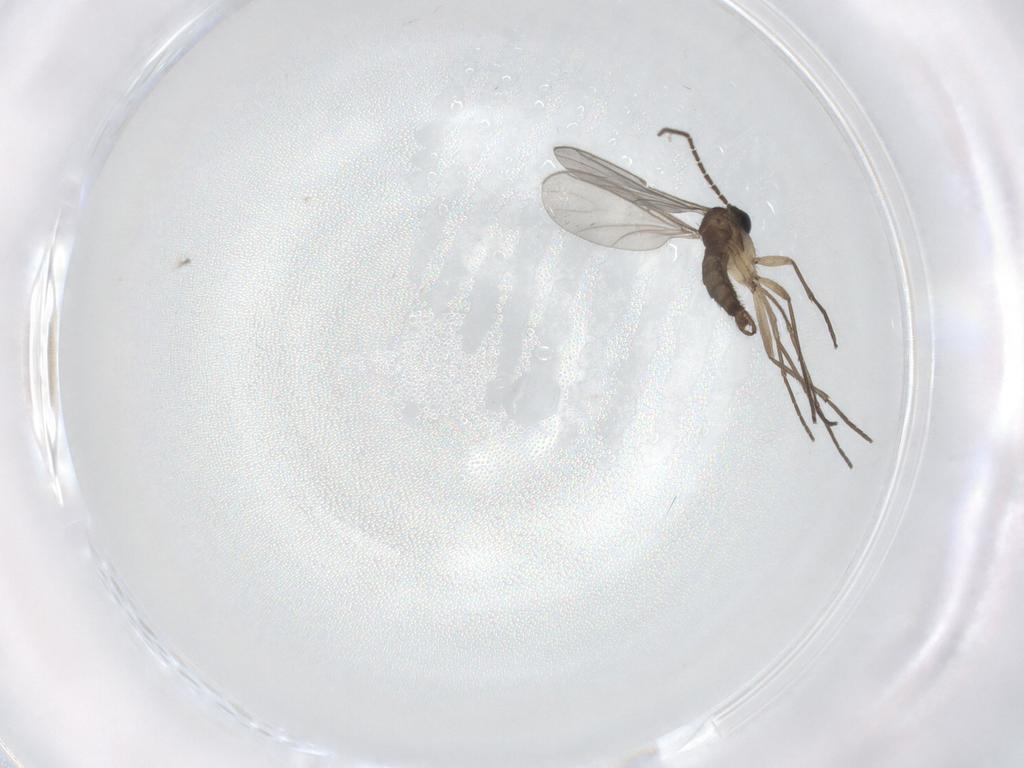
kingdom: Animalia
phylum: Arthropoda
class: Insecta
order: Diptera
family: Sciaridae
